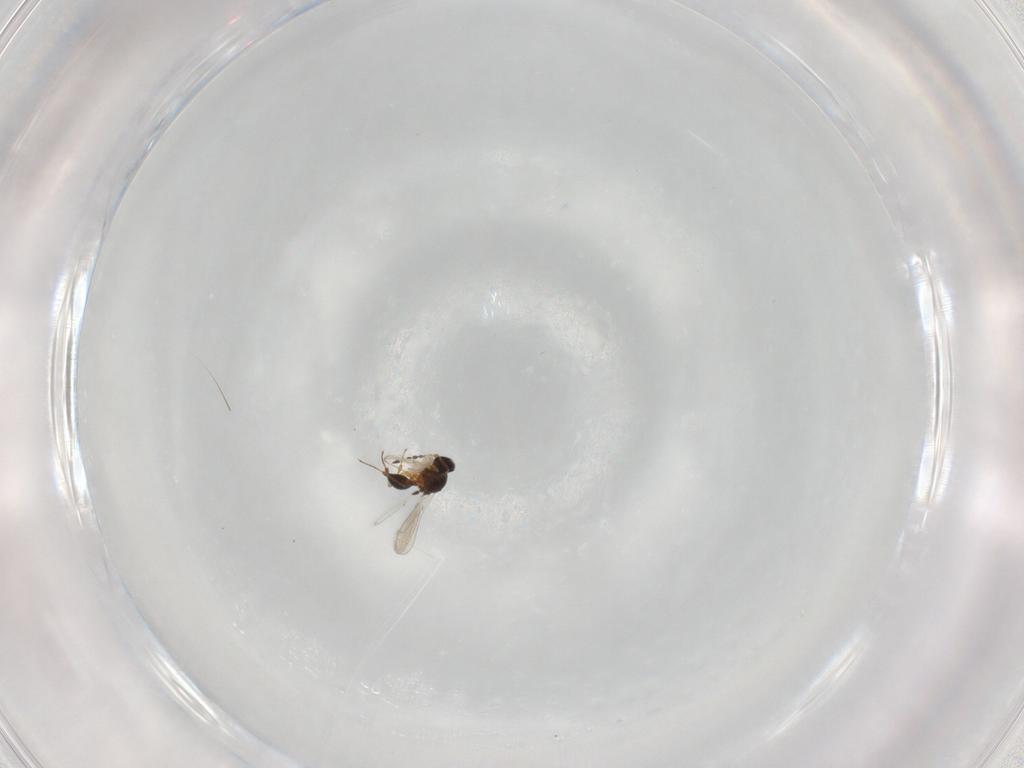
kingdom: Animalia
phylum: Arthropoda
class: Insecta
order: Hymenoptera
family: Platygastridae
